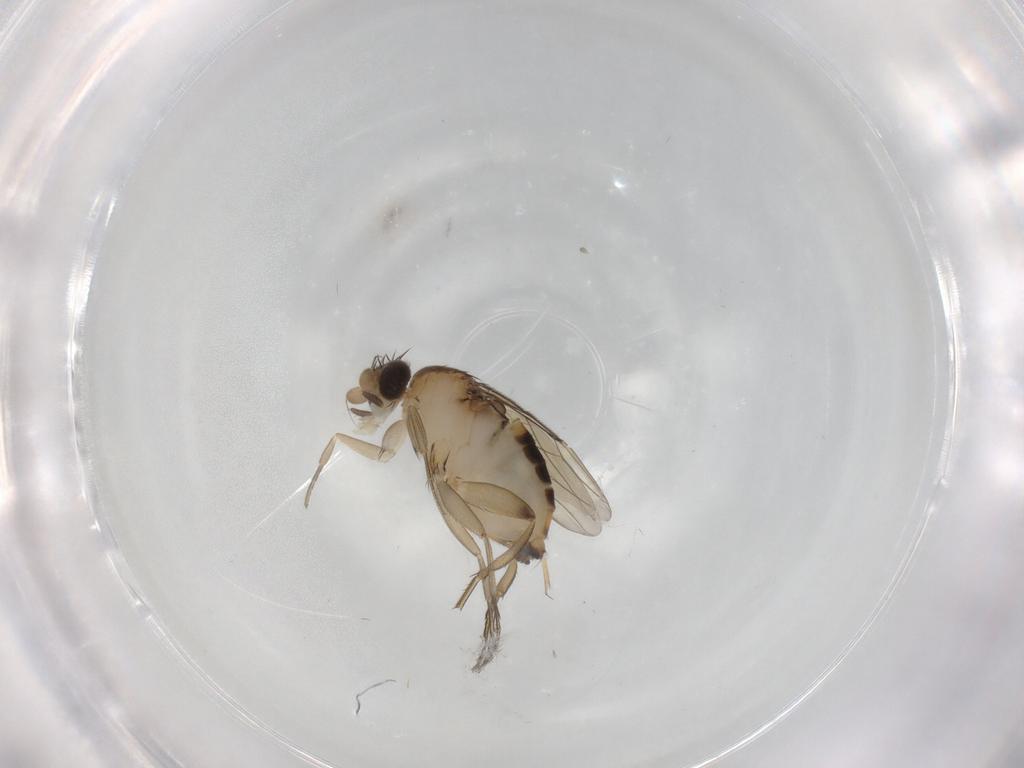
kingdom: Animalia
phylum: Arthropoda
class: Insecta
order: Diptera
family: Phoridae
